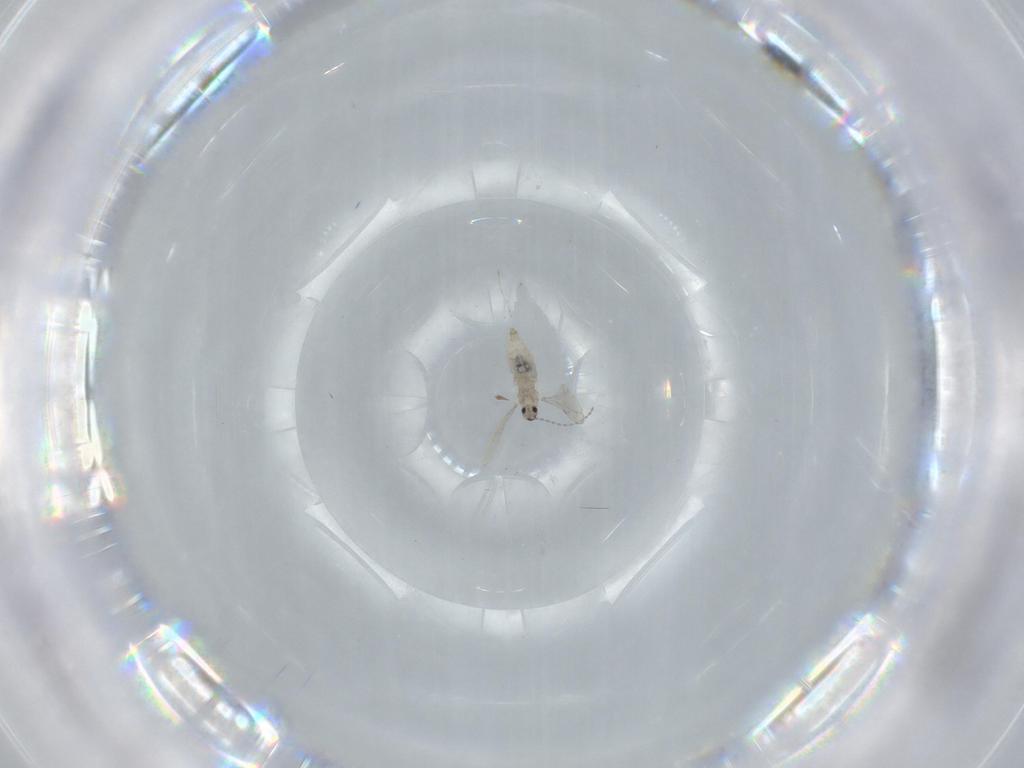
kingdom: Animalia
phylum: Arthropoda
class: Insecta
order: Diptera
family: Cecidomyiidae
